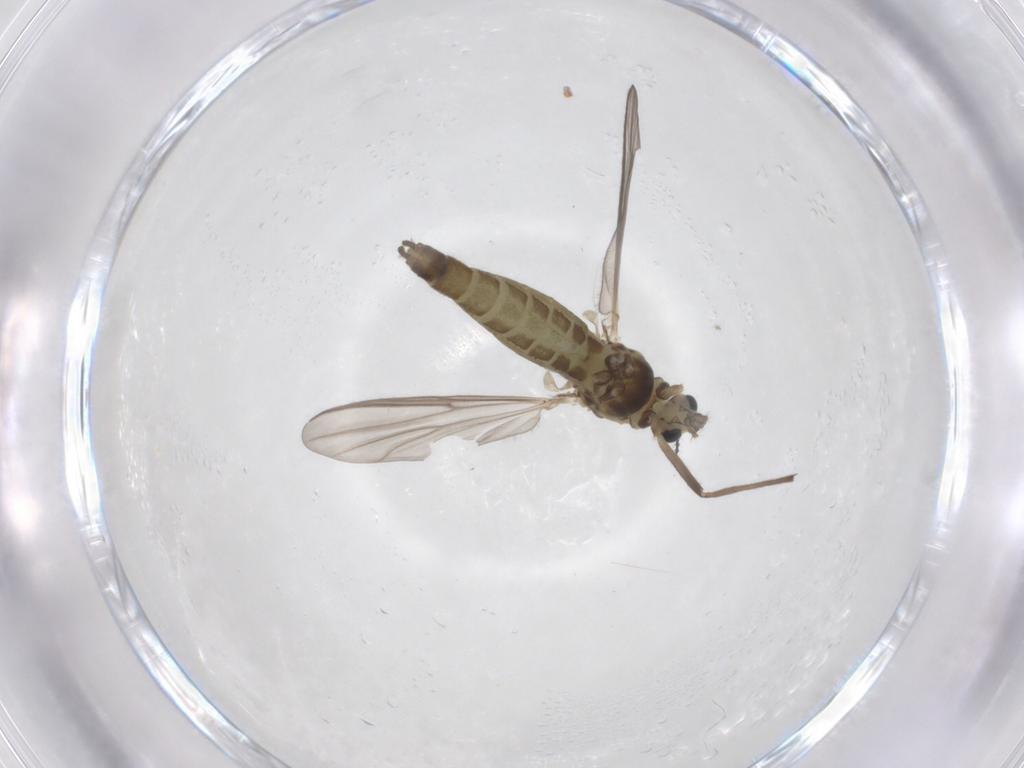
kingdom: Animalia
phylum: Arthropoda
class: Insecta
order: Diptera
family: Chironomidae
